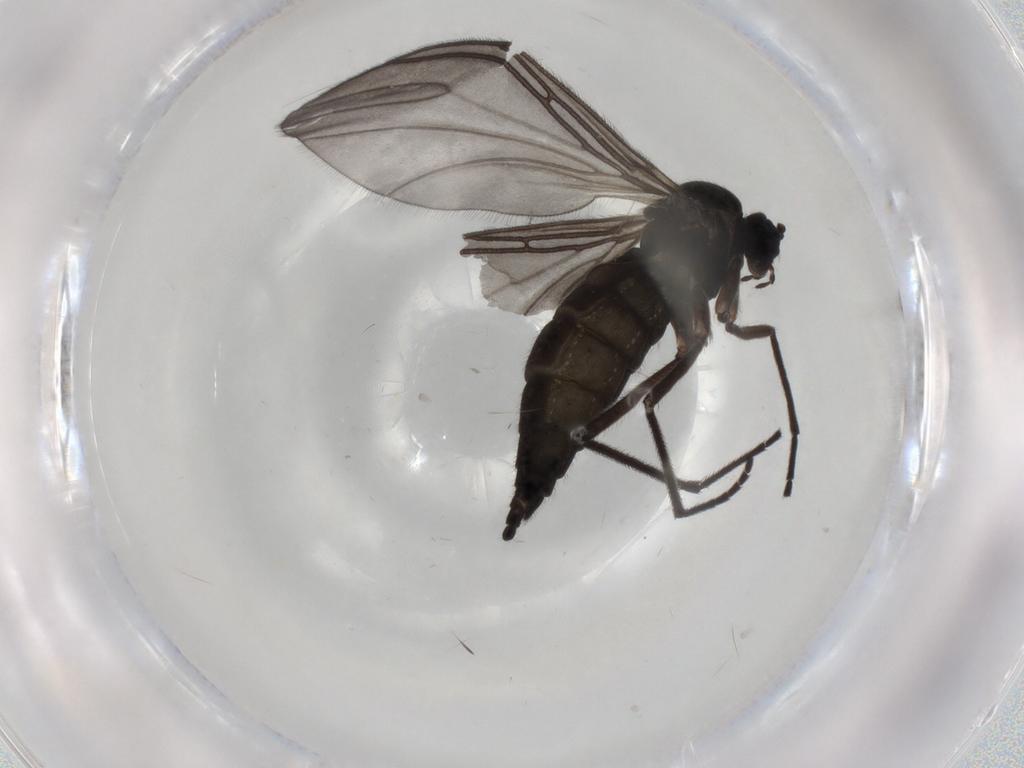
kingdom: Animalia
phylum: Arthropoda
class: Insecta
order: Diptera
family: Sciaridae
